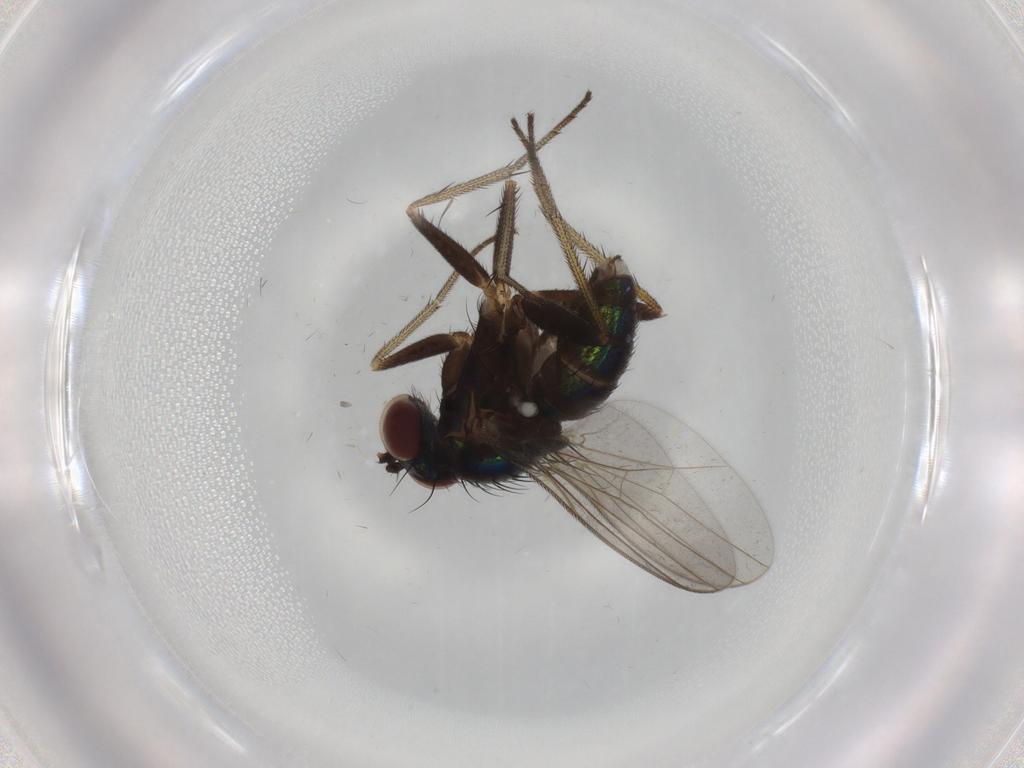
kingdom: Animalia
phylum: Arthropoda
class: Insecta
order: Diptera
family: Dolichopodidae
